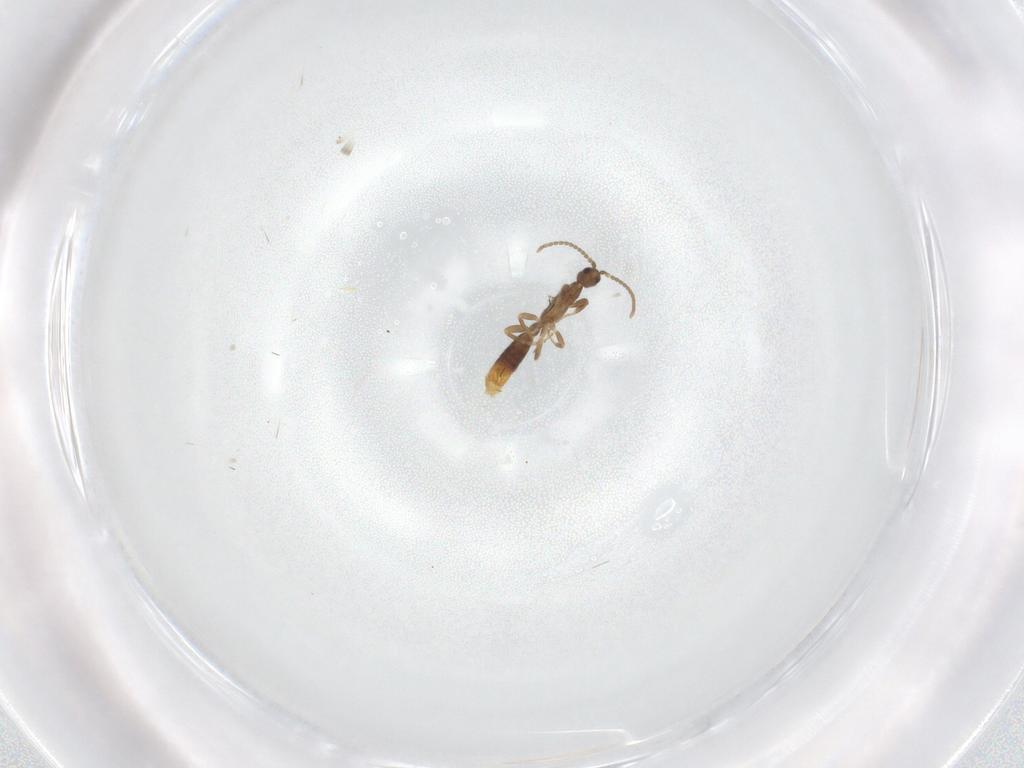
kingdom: Animalia
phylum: Arthropoda
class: Insecta
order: Hymenoptera
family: Formicidae
